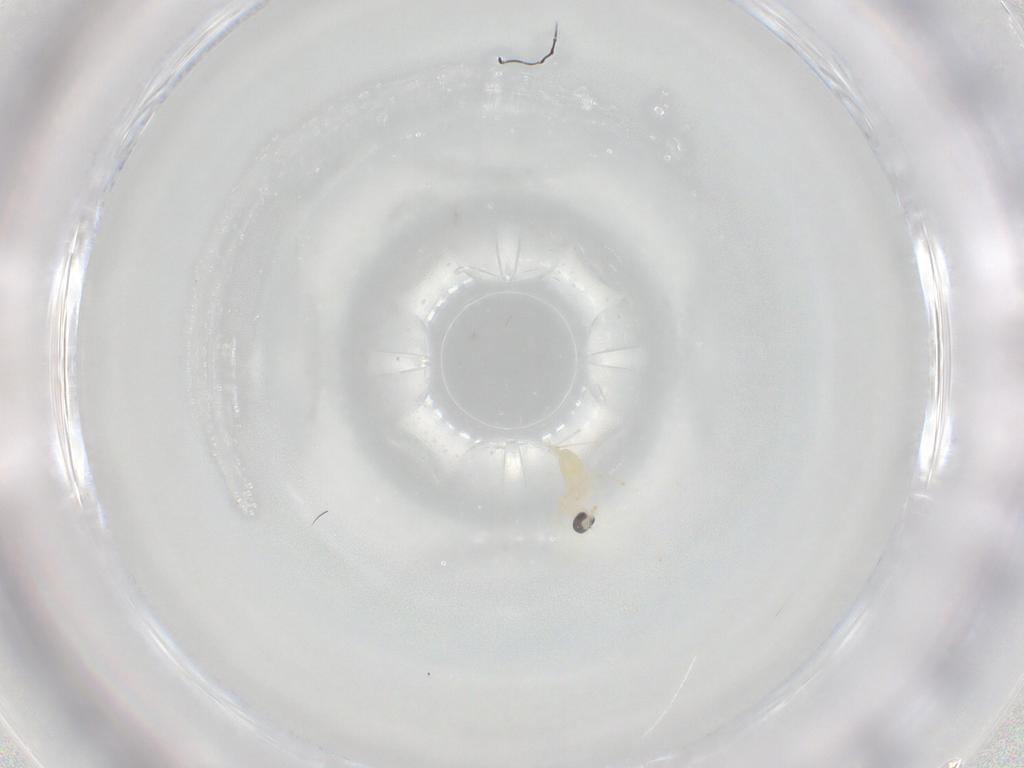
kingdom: Animalia
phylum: Arthropoda
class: Insecta
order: Diptera
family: Cecidomyiidae
